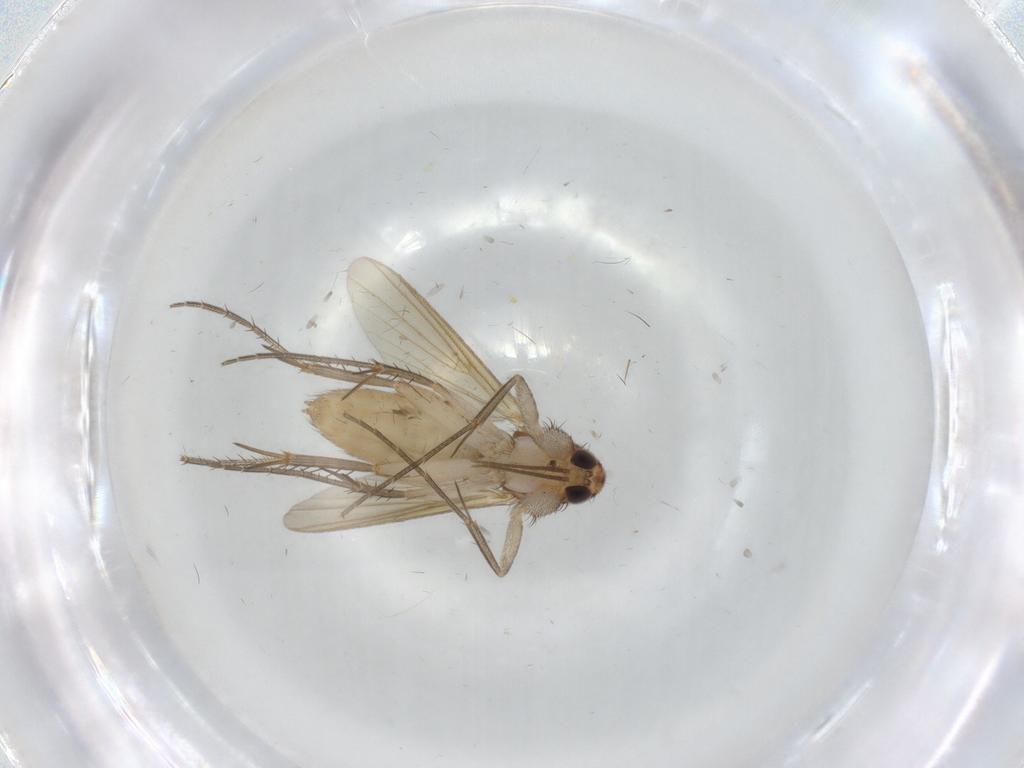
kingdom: Animalia
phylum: Arthropoda
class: Insecta
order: Diptera
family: Mycetophilidae
